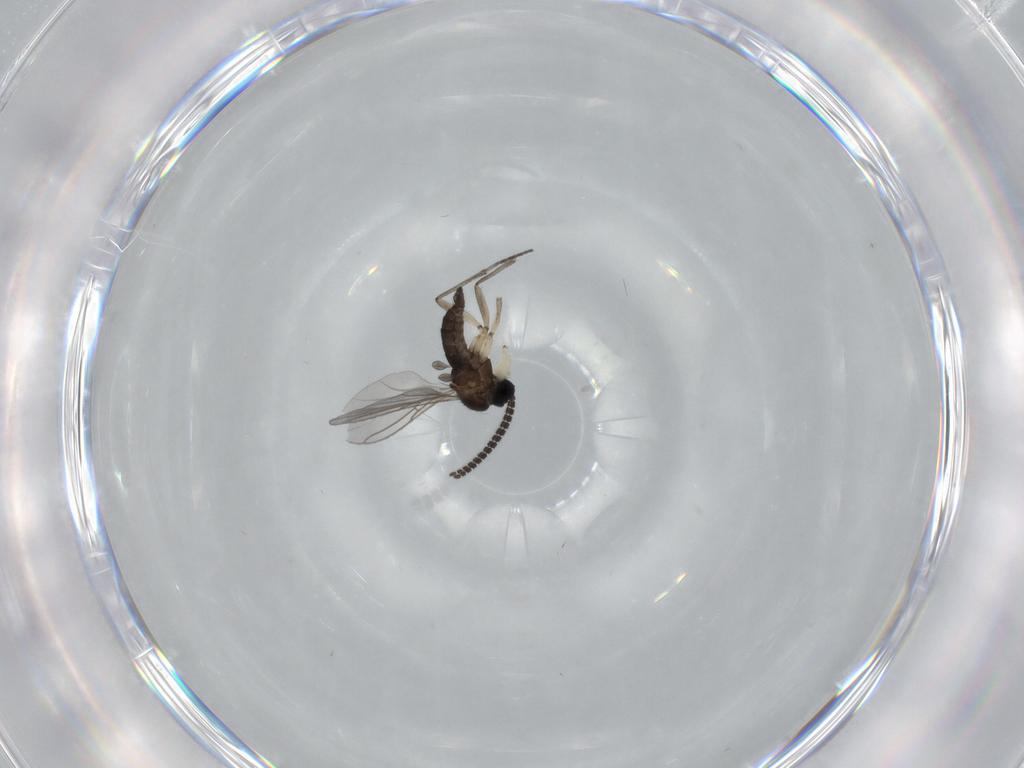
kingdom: Animalia
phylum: Arthropoda
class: Insecta
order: Diptera
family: Sciaridae
